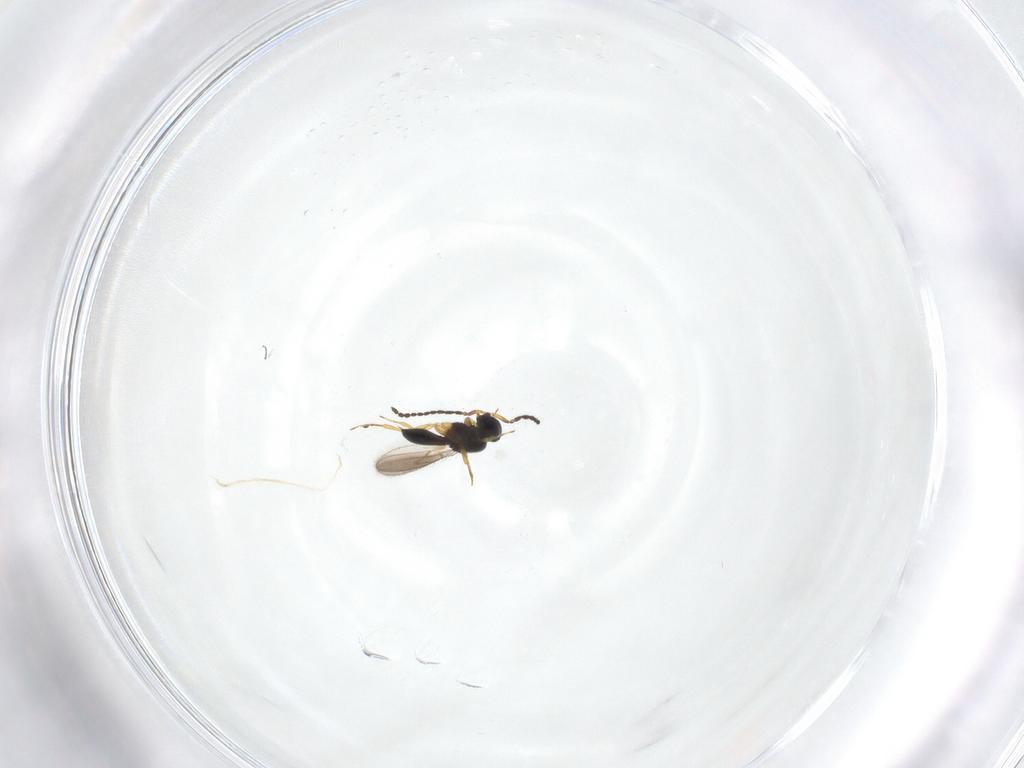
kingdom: Animalia
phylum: Arthropoda
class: Insecta
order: Hymenoptera
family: Scelionidae
